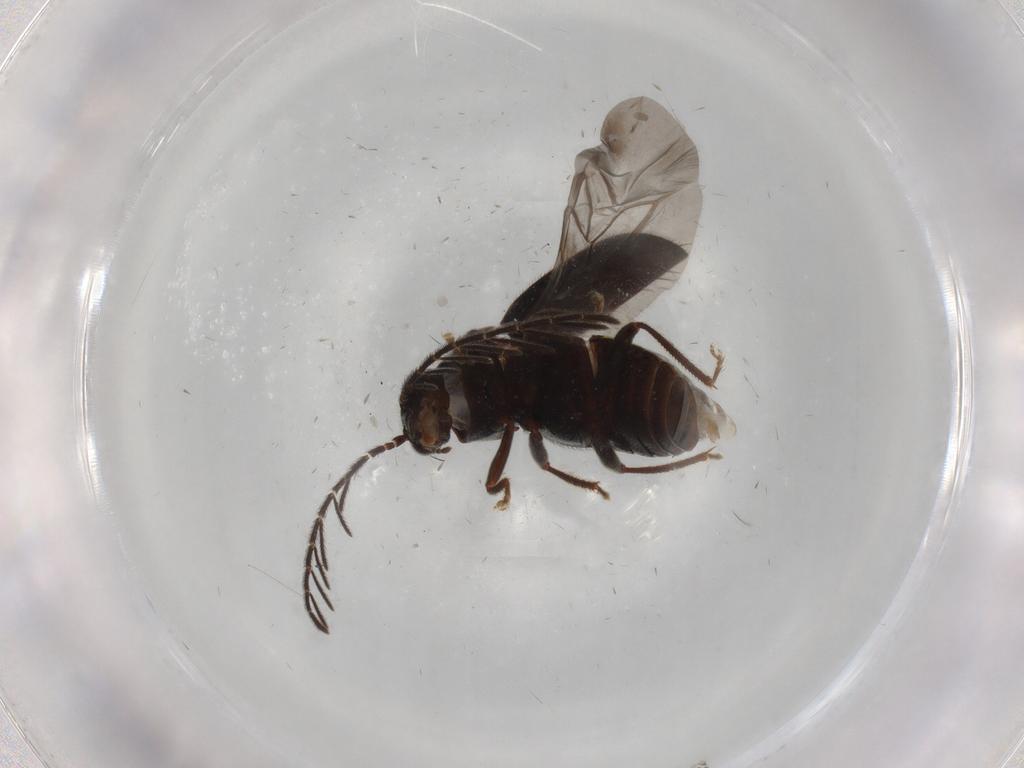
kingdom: Animalia
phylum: Arthropoda
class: Insecta
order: Coleoptera
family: Ptilodactylidae
